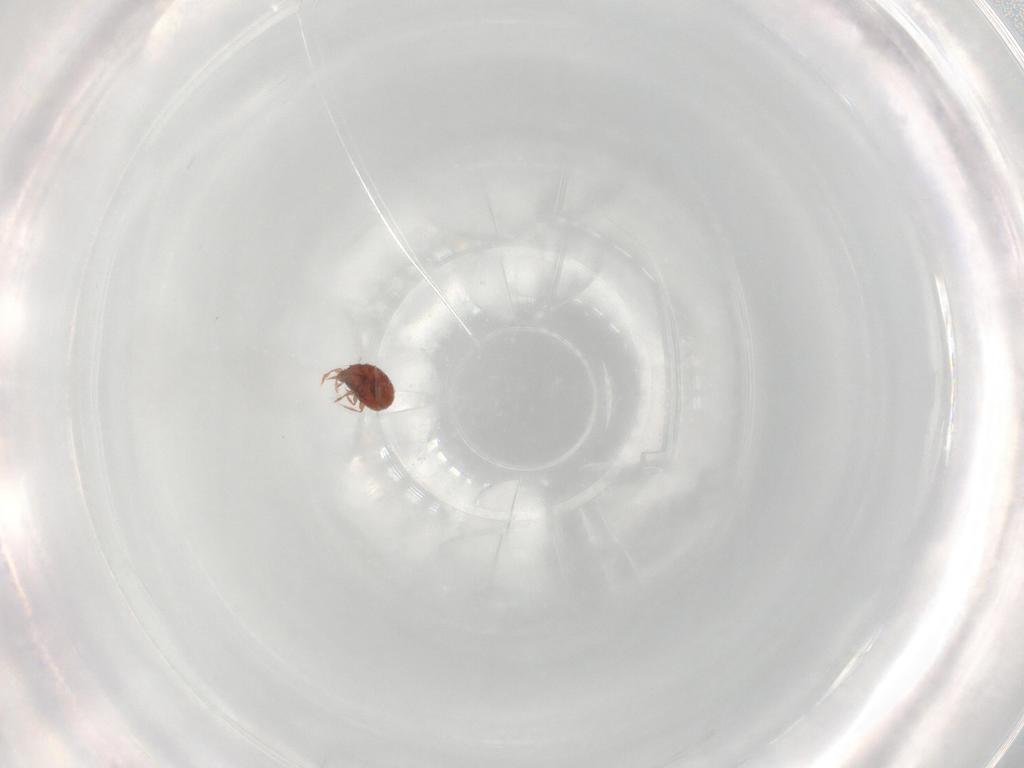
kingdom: Animalia
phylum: Arthropoda
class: Arachnida
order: Sarcoptiformes
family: Oribatulidae
